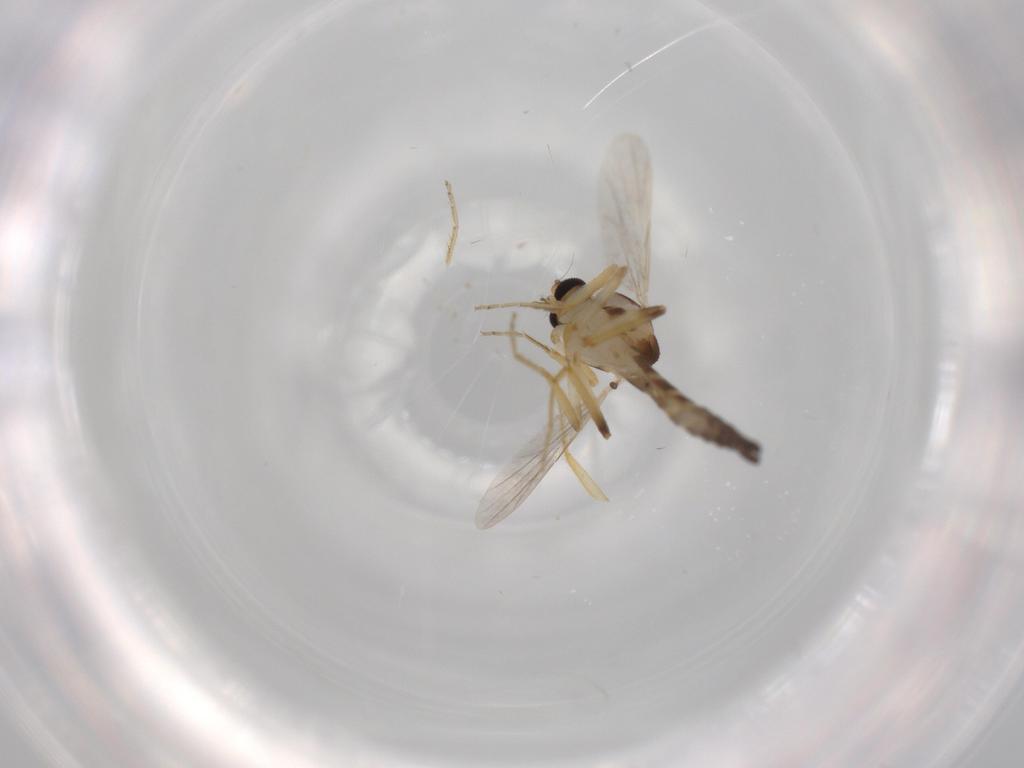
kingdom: Animalia
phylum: Arthropoda
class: Insecta
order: Diptera
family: Ceratopogonidae
